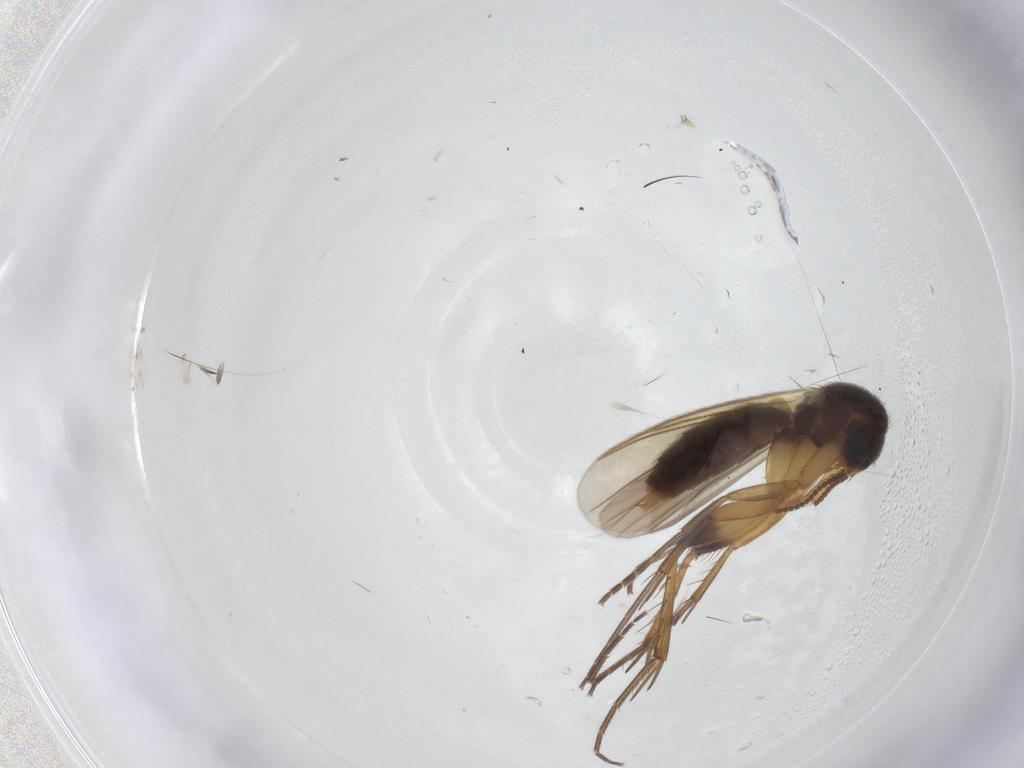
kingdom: Animalia
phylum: Arthropoda
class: Insecta
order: Diptera
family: Mycetophilidae
